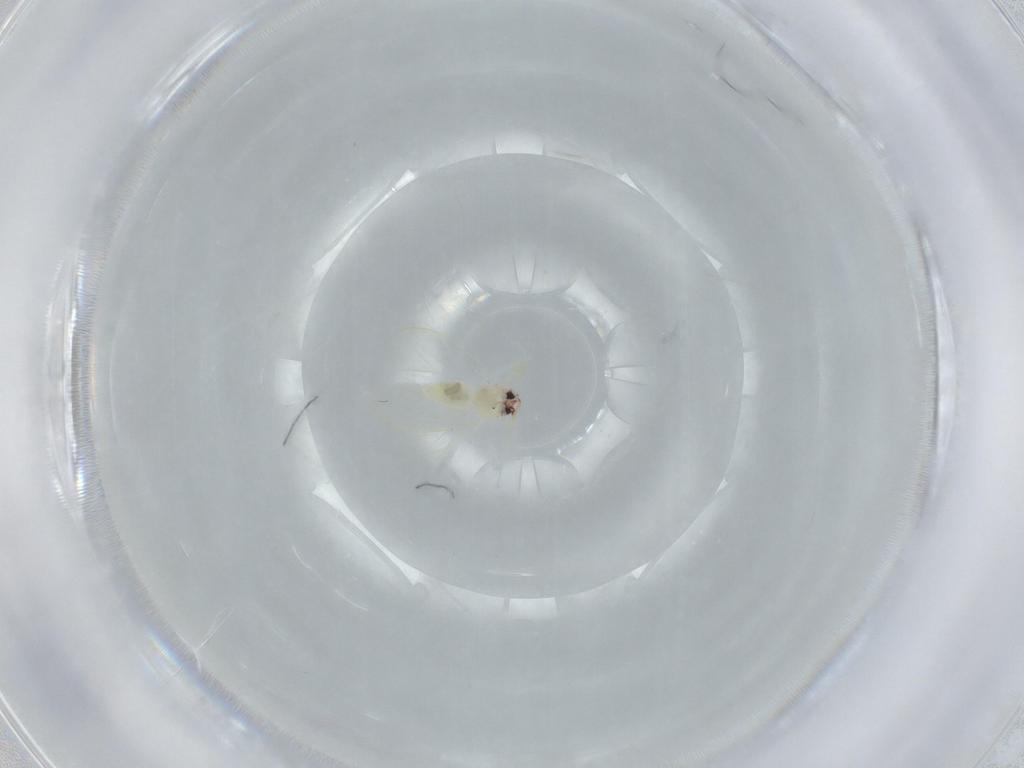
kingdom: Animalia
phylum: Arthropoda
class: Insecta
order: Hemiptera
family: Aleyrodidae
